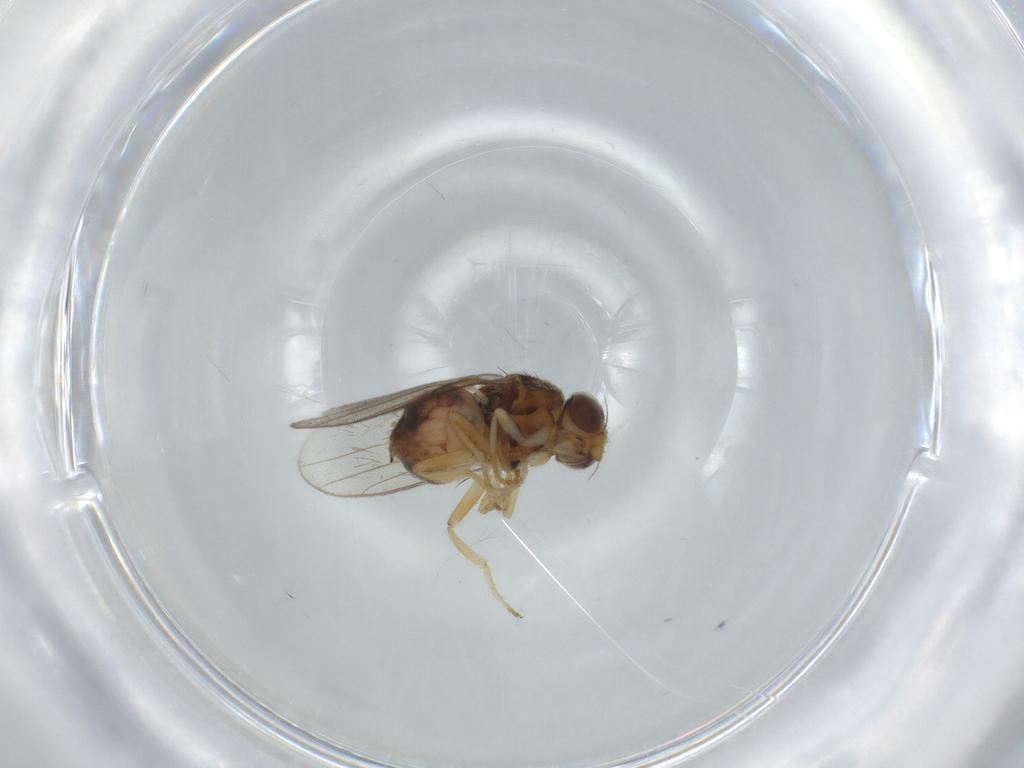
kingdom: Animalia
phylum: Arthropoda
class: Insecta
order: Diptera
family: Chloropidae
